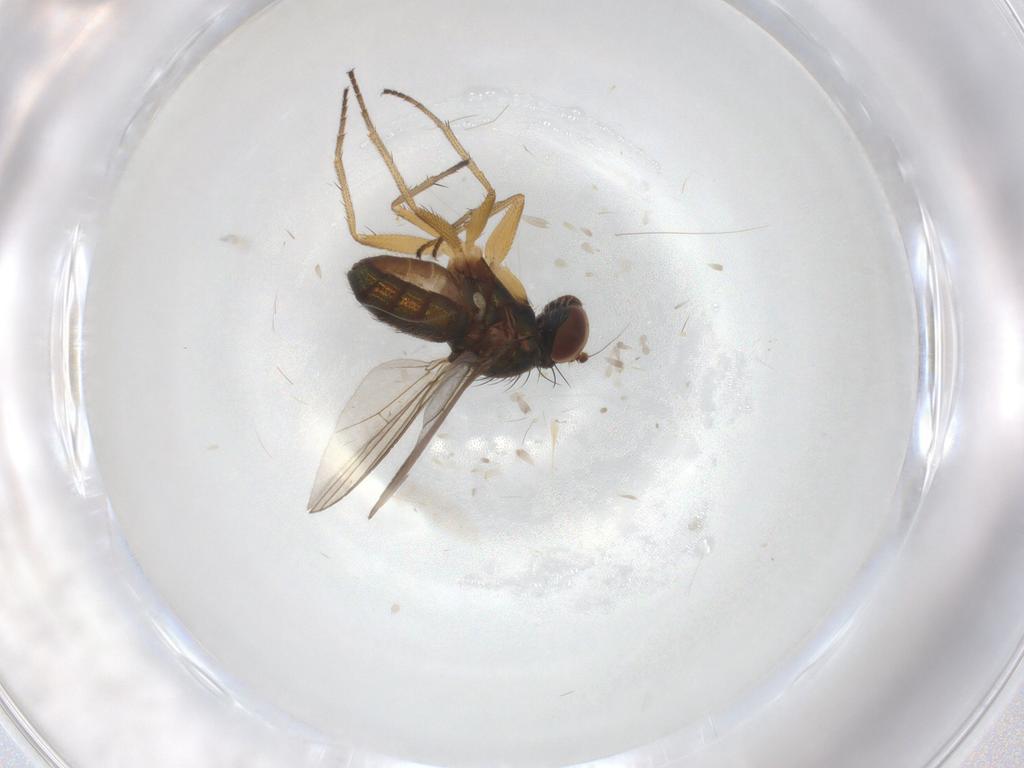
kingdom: Animalia
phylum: Arthropoda
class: Insecta
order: Diptera
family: Dolichopodidae
